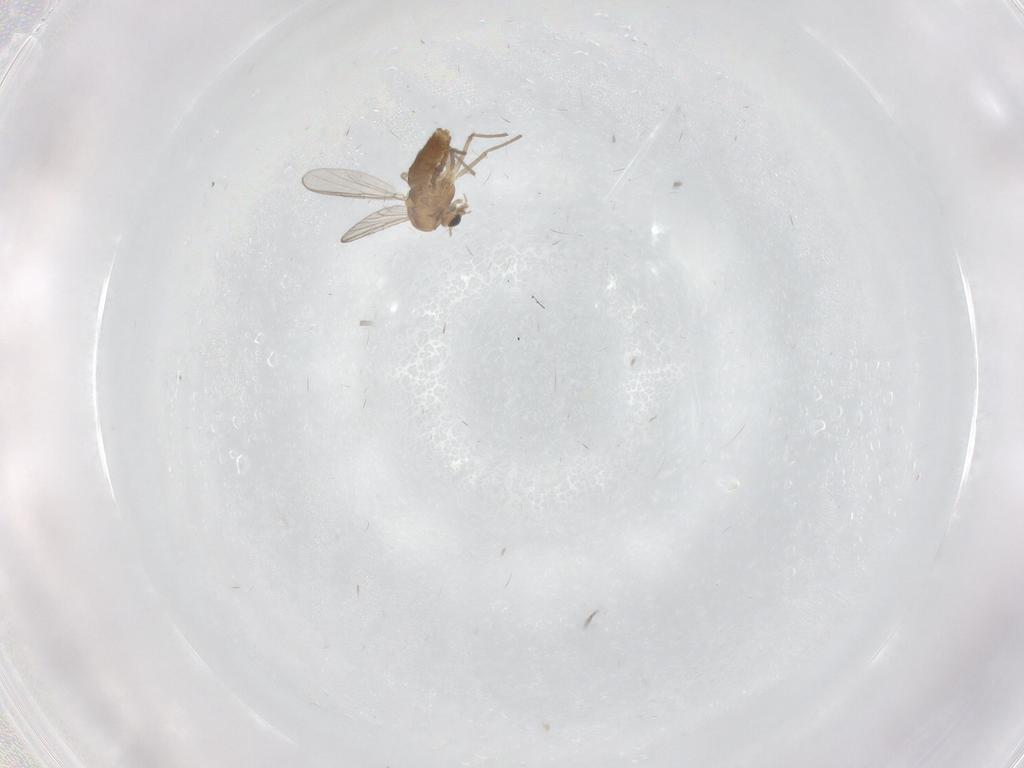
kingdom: Animalia
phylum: Arthropoda
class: Insecta
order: Diptera
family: Chironomidae
